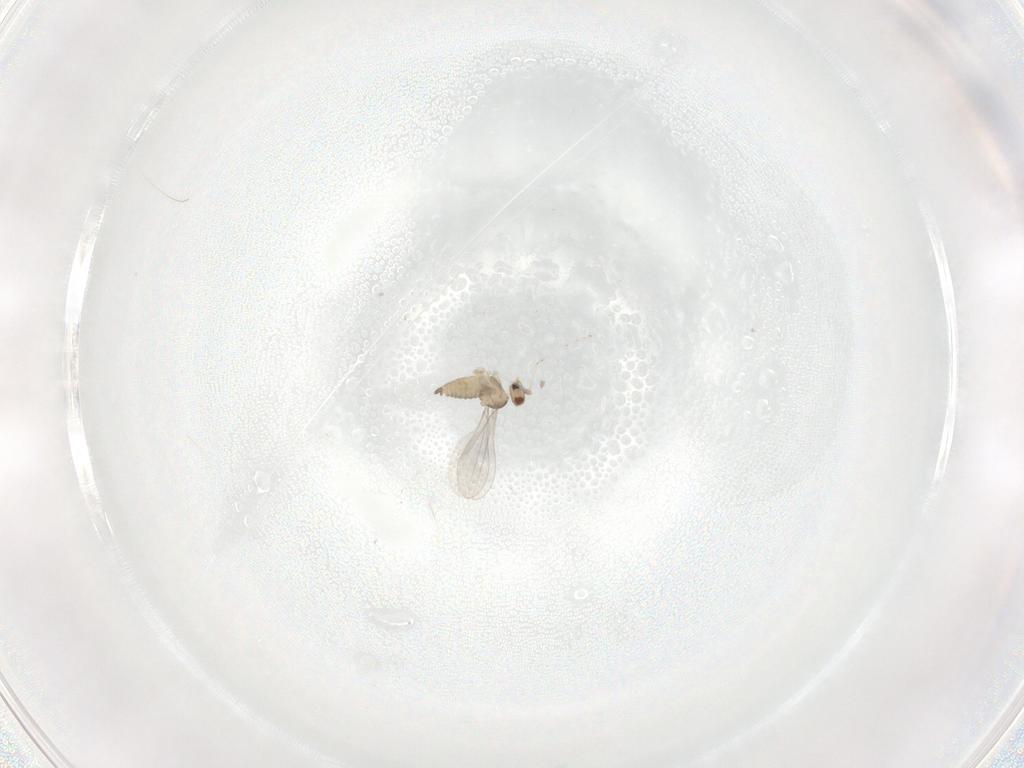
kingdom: Animalia
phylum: Arthropoda
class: Insecta
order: Diptera
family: Cecidomyiidae
